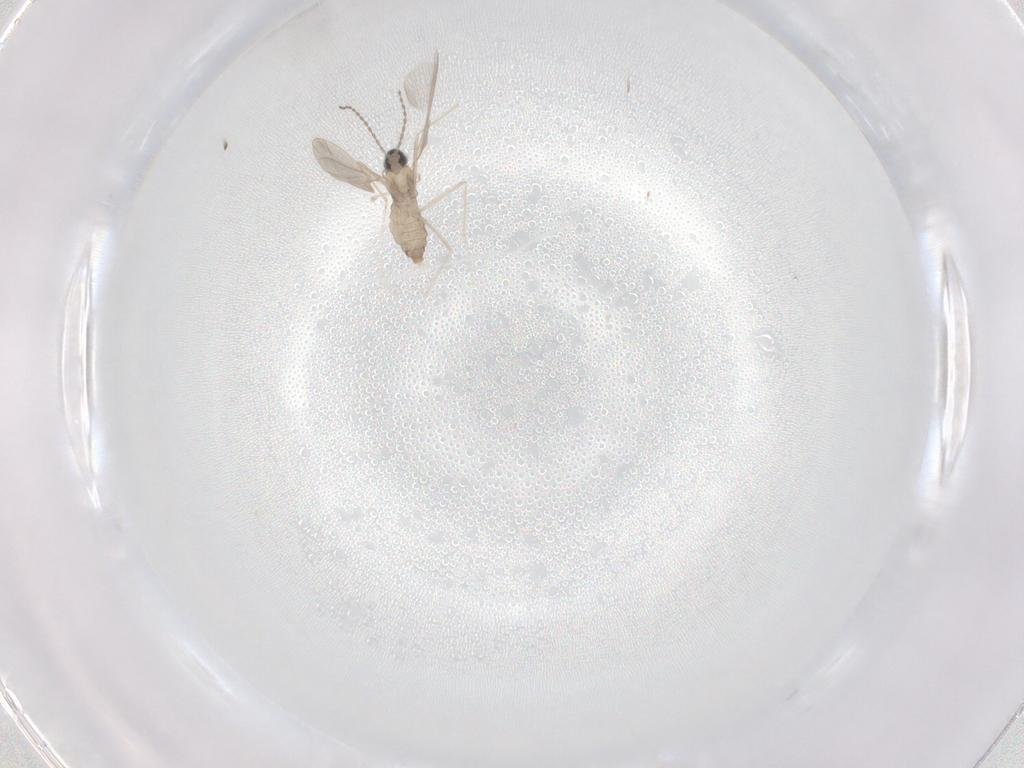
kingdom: Animalia
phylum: Arthropoda
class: Insecta
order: Diptera
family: Cecidomyiidae
